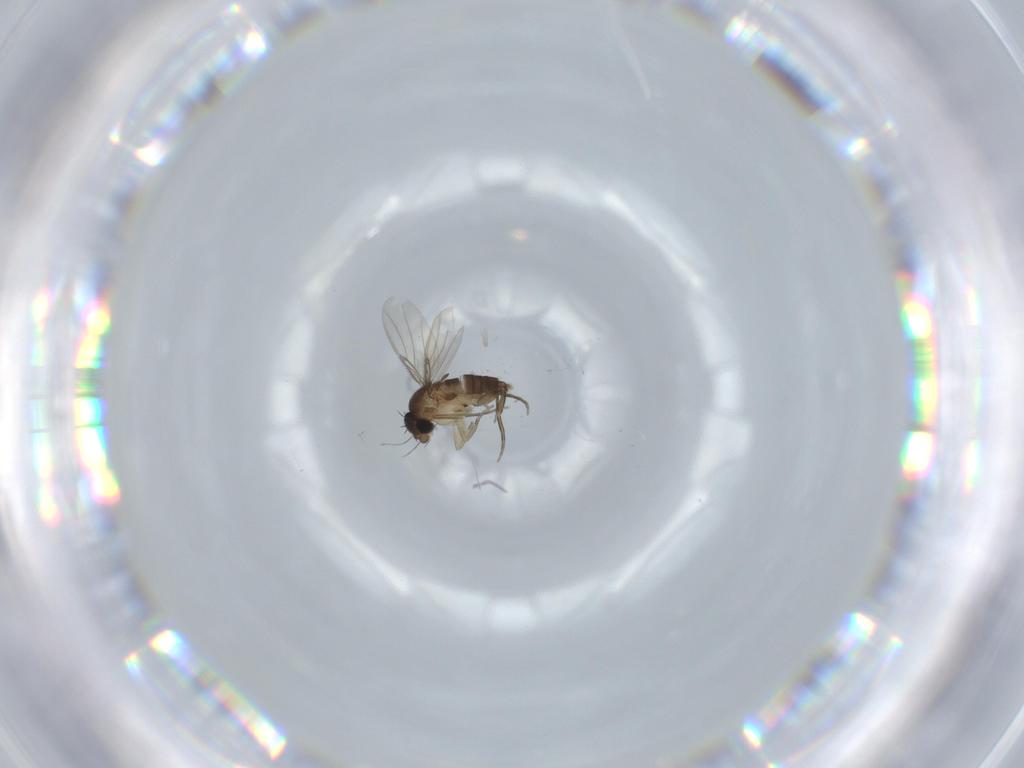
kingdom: Animalia
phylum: Arthropoda
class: Insecta
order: Diptera
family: Phoridae
